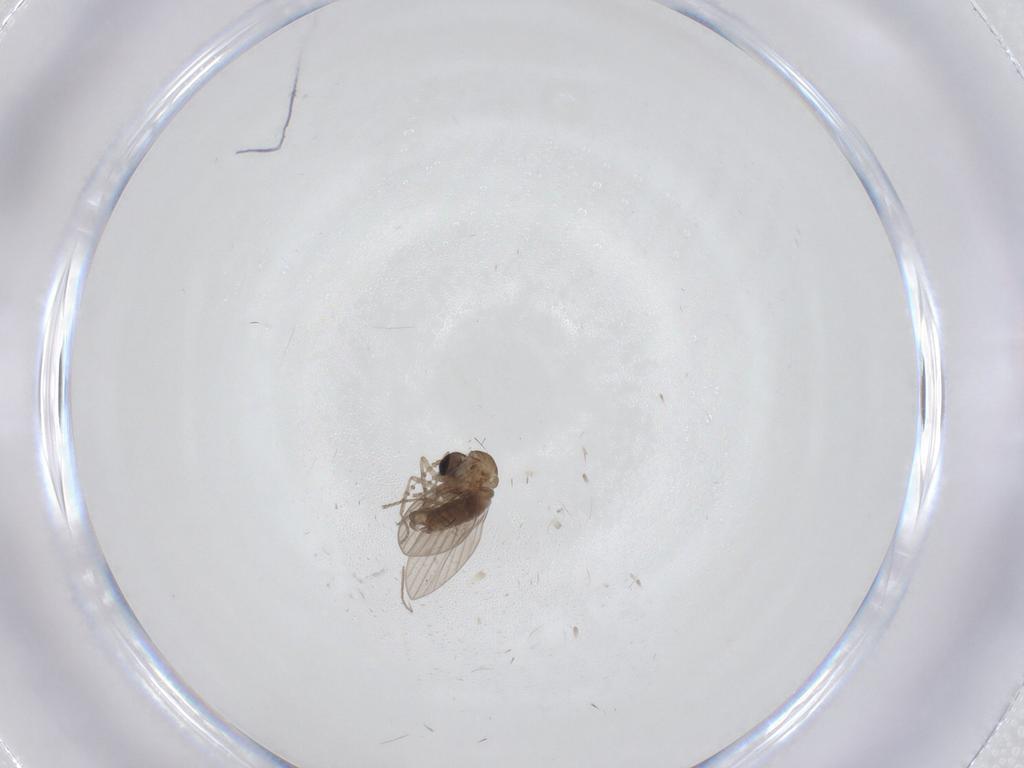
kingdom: Animalia
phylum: Arthropoda
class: Insecta
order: Diptera
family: Psychodidae
